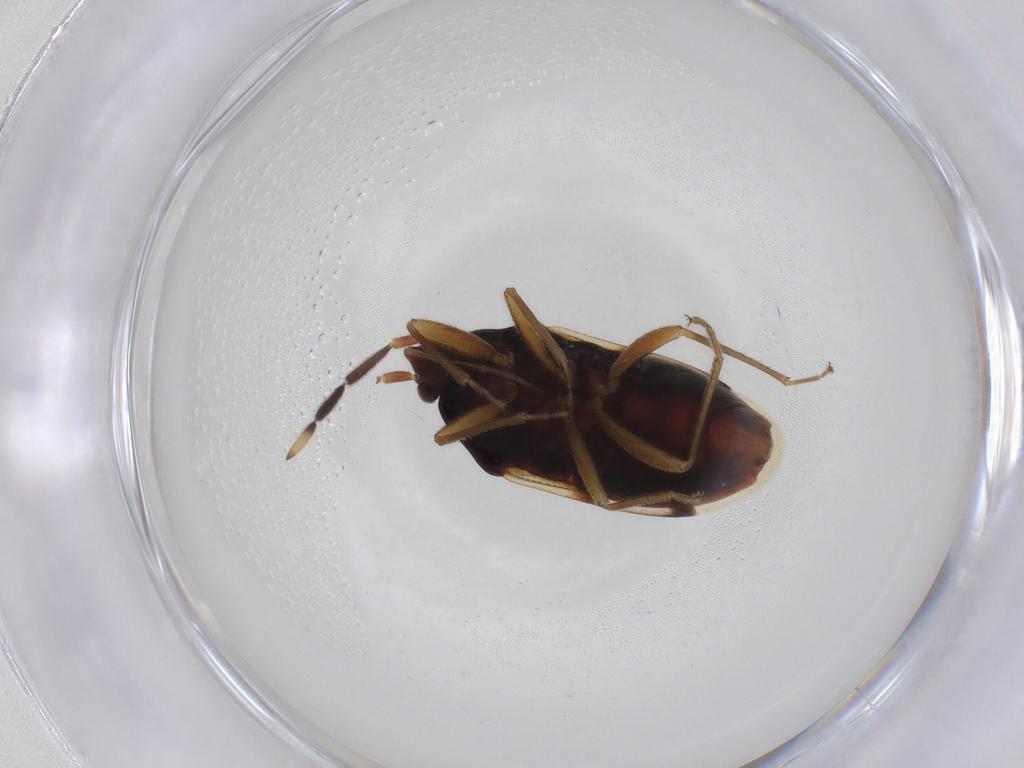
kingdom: Animalia
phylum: Arthropoda
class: Insecta
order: Hemiptera
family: Rhyparochromidae
